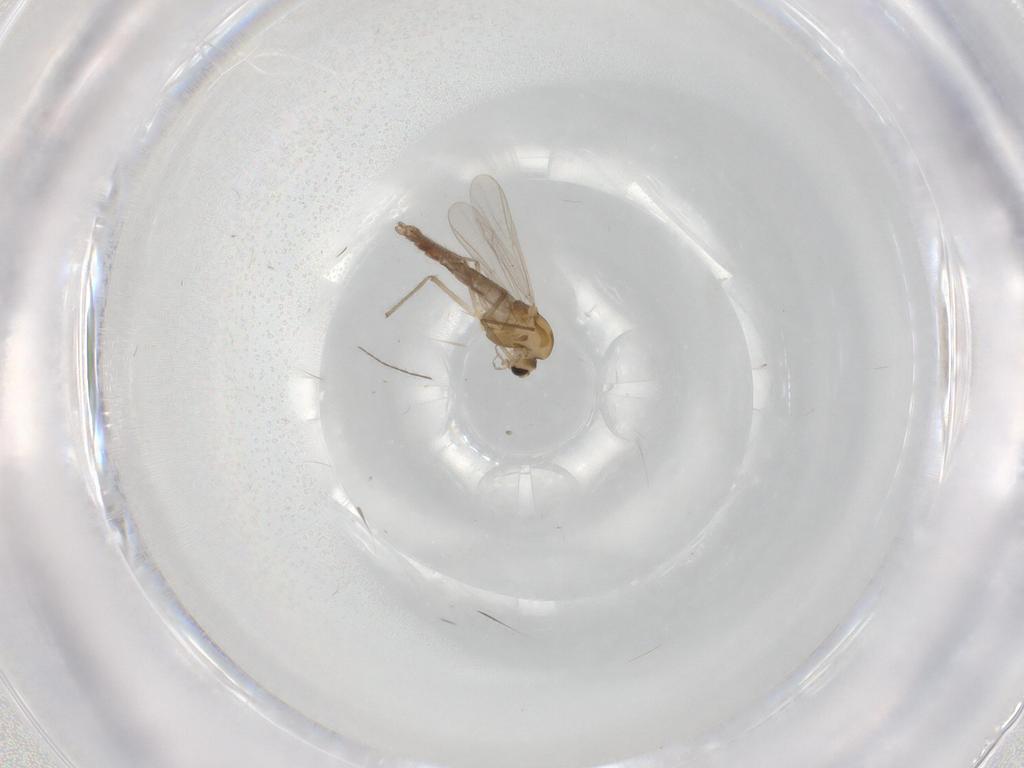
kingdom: Animalia
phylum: Arthropoda
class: Insecta
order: Diptera
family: Chironomidae
